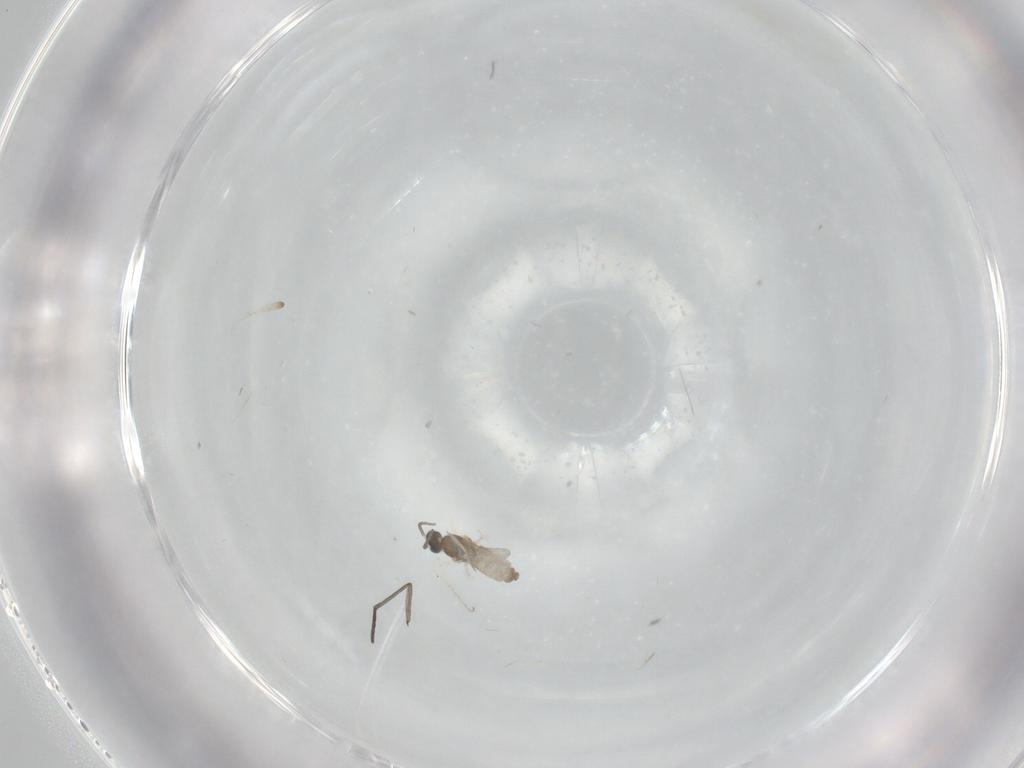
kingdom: Animalia
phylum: Arthropoda
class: Insecta
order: Diptera
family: Cecidomyiidae
